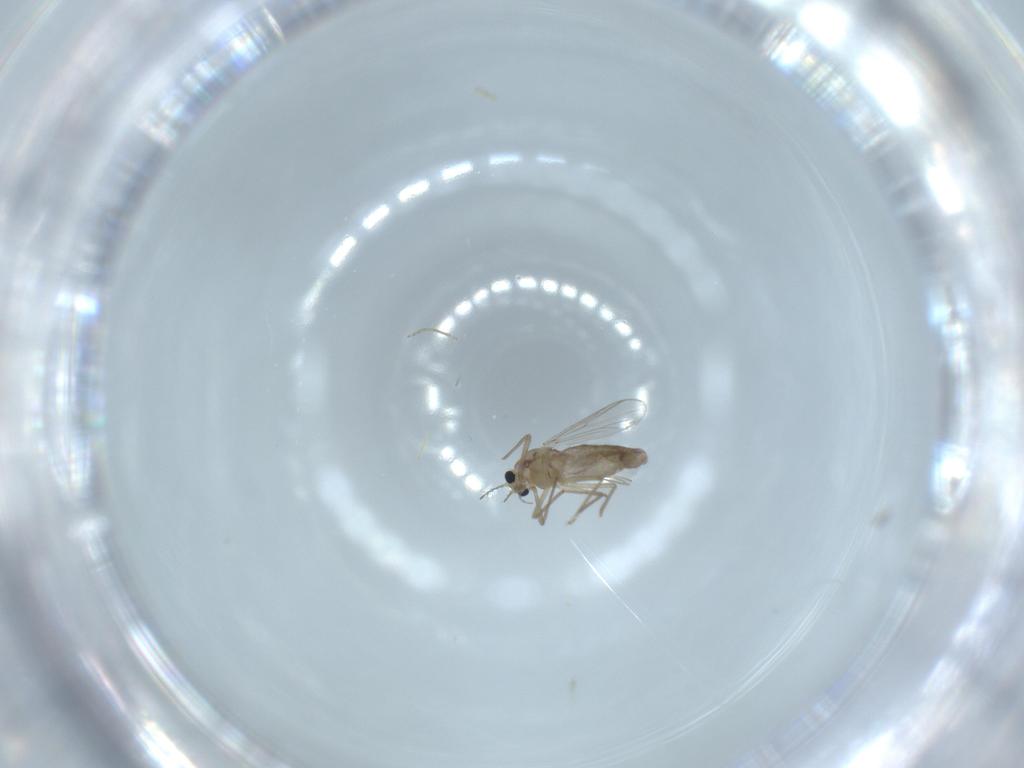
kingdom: Animalia
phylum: Arthropoda
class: Insecta
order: Diptera
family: Chironomidae
